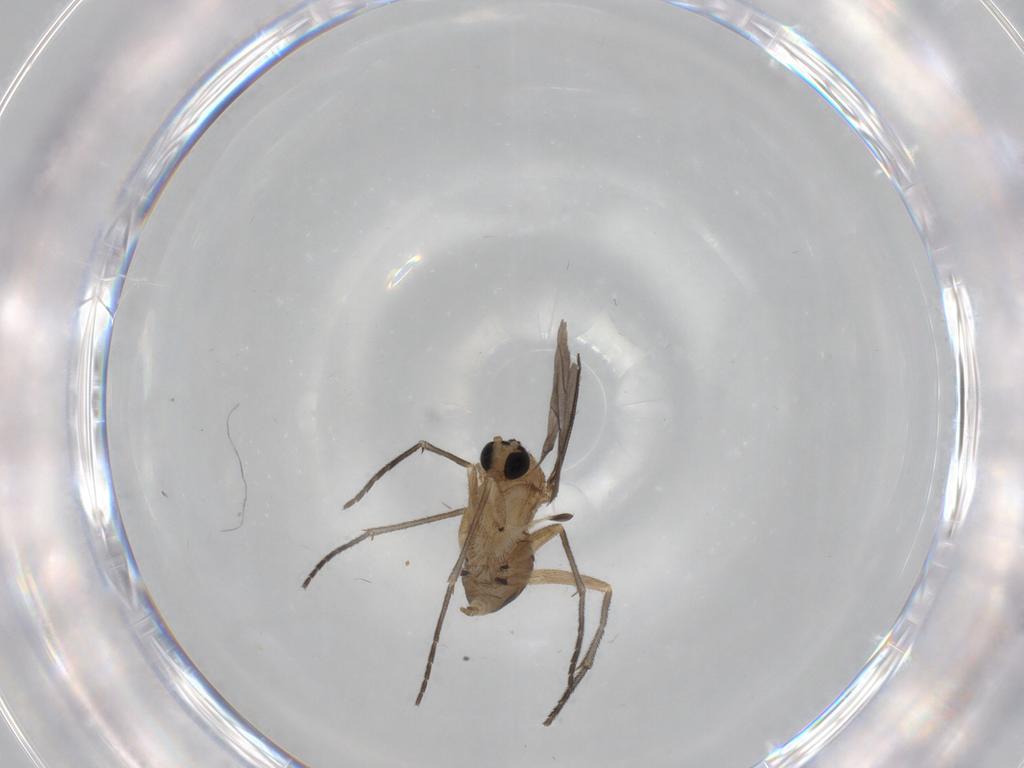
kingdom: Animalia
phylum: Arthropoda
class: Insecta
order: Diptera
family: Sciaridae
